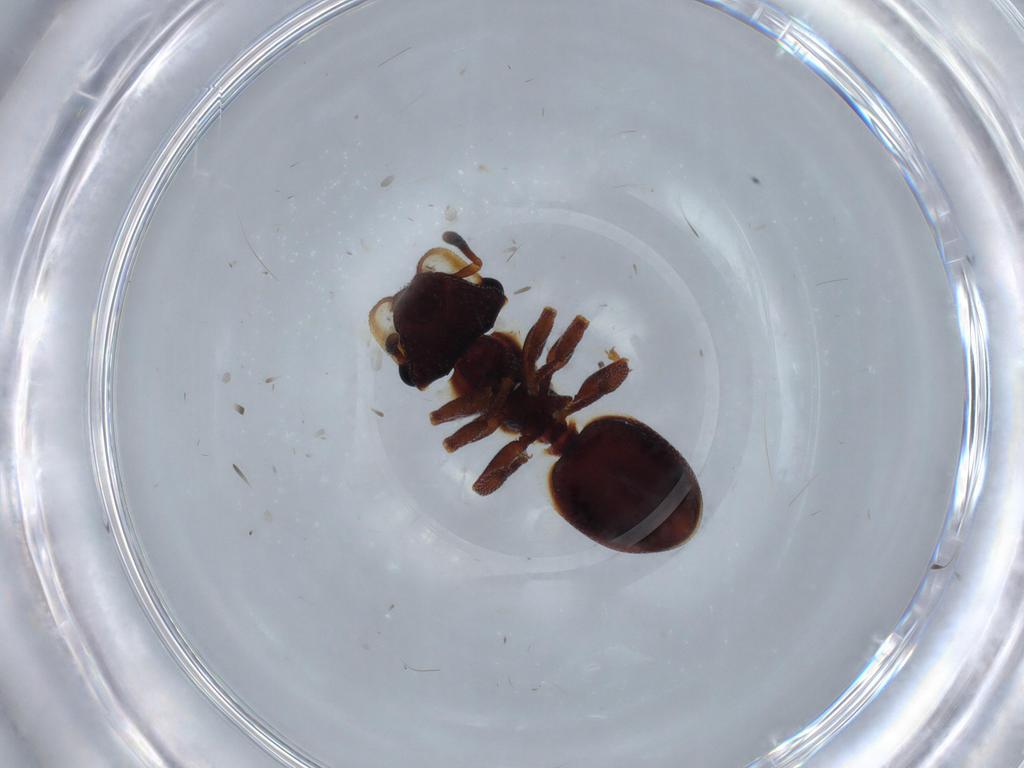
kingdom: Animalia
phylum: Arthropoda
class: Insecta
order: Hymenoptera
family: Formicidae
